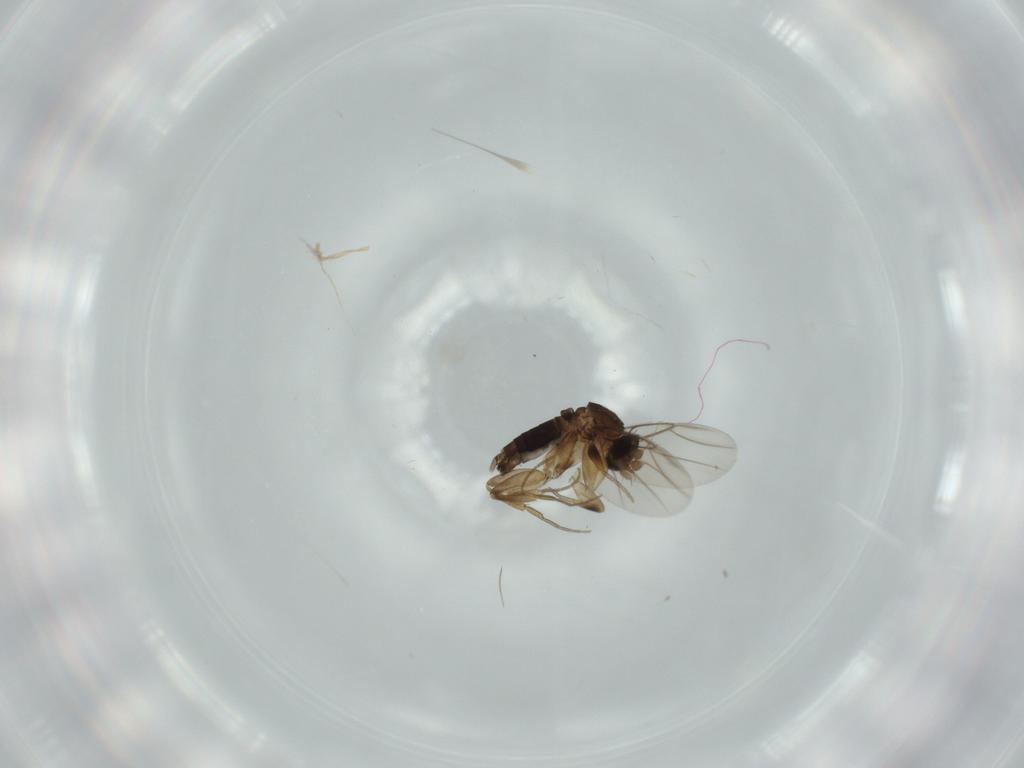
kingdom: Animalia
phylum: Arthropoda
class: Insecta
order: Diptera
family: Phoridae
